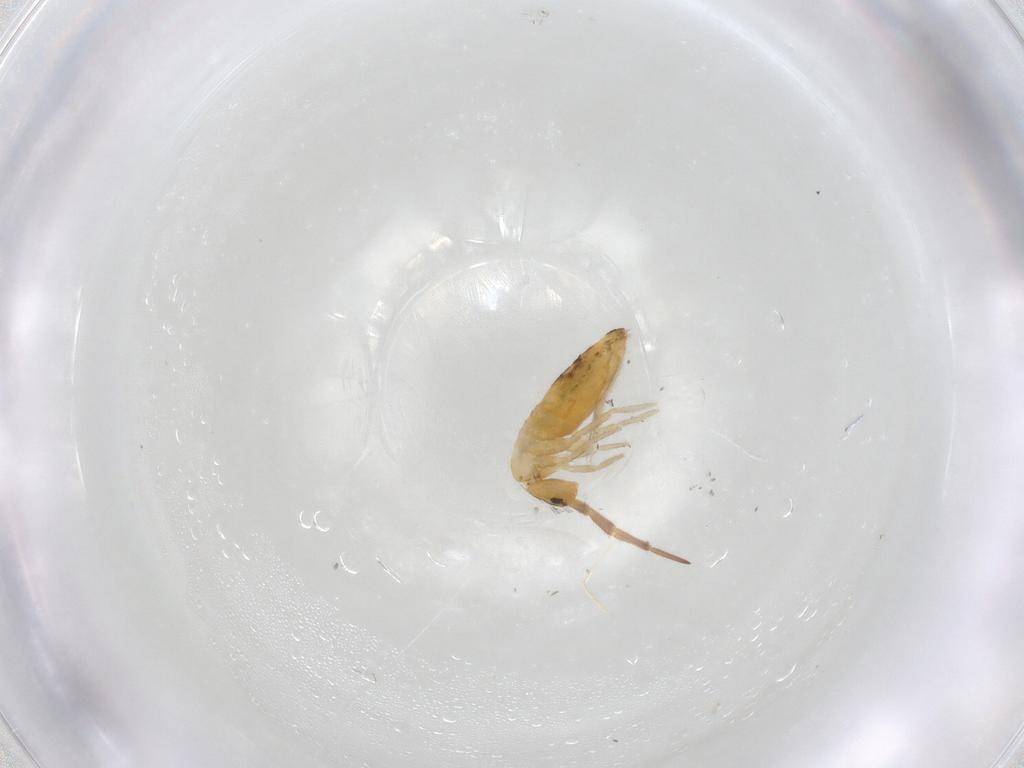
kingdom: Animalia
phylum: Arthropoda
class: Collembola
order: Entomobryomorpha
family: Entomobryidae
